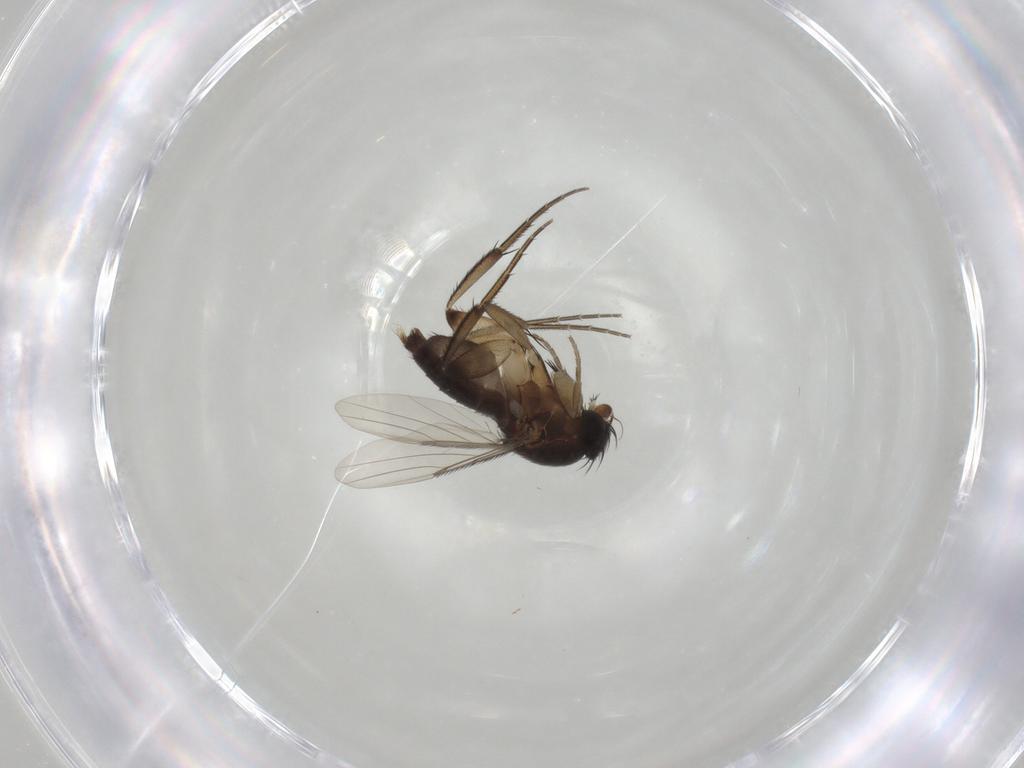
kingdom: Animalia
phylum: Arthropoda
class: Insecta
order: Diptera
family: Phoridae
